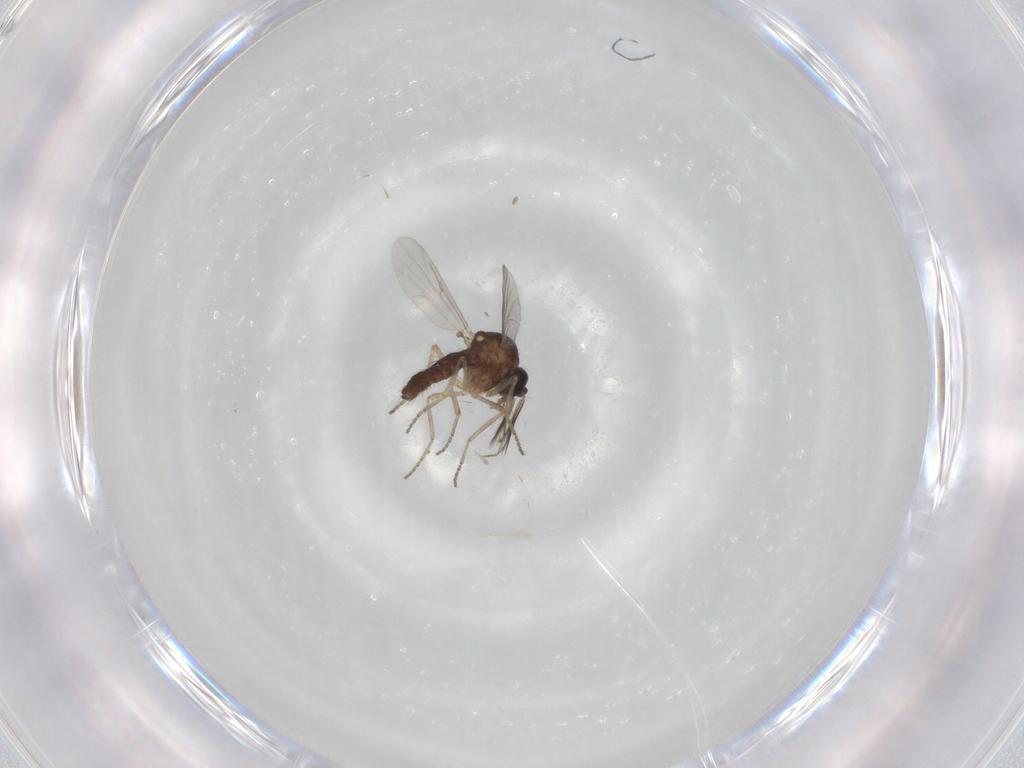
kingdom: Animalia
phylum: Arthropoda
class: Insecta
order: Diptera
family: Ceratopogonidae
